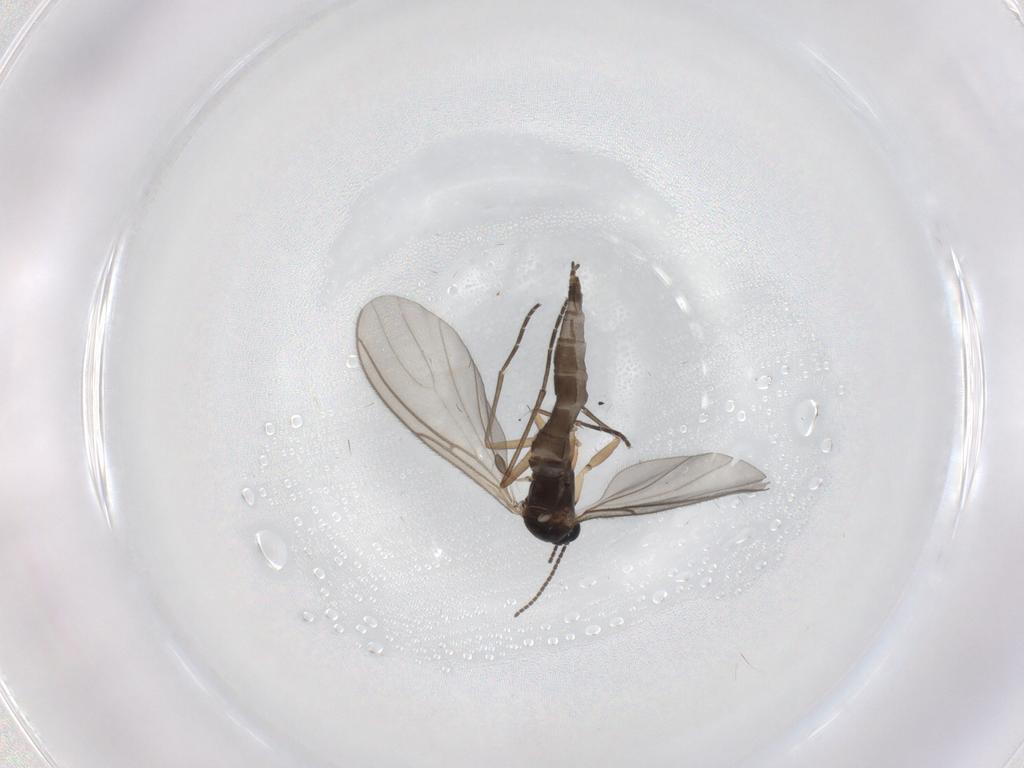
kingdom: Animalia
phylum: Arthropoda
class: Insecta
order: Diptera
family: Sciaridae
